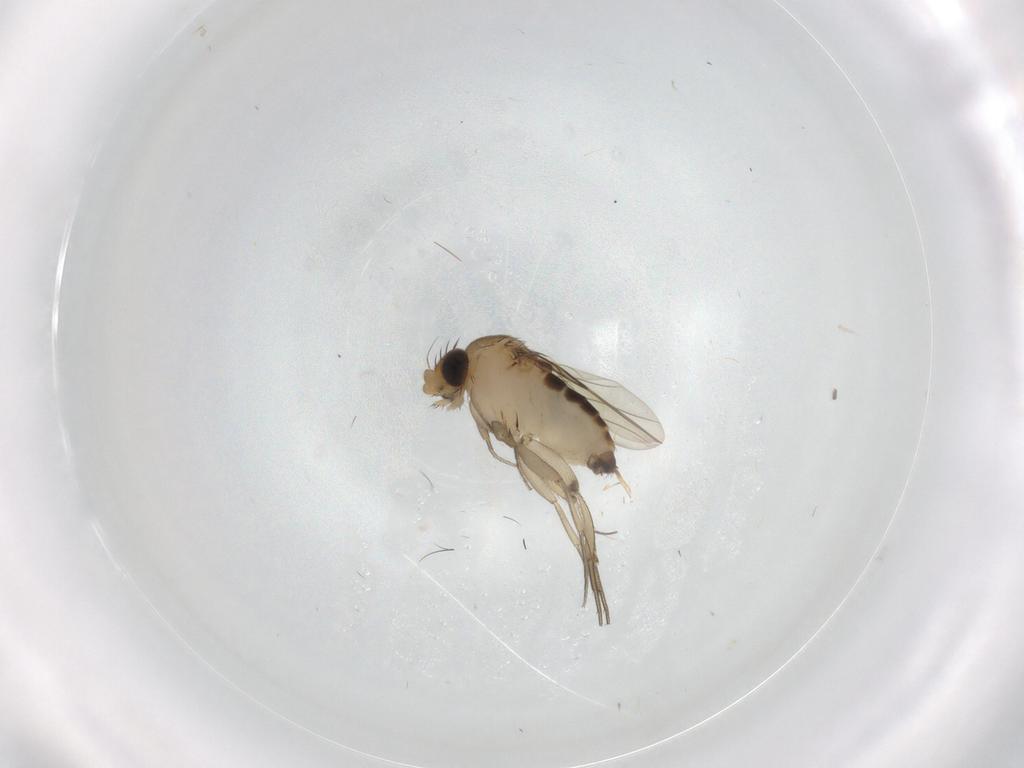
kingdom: Animalia
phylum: Arthropoda
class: Insecta
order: Diptera
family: Phoridae
